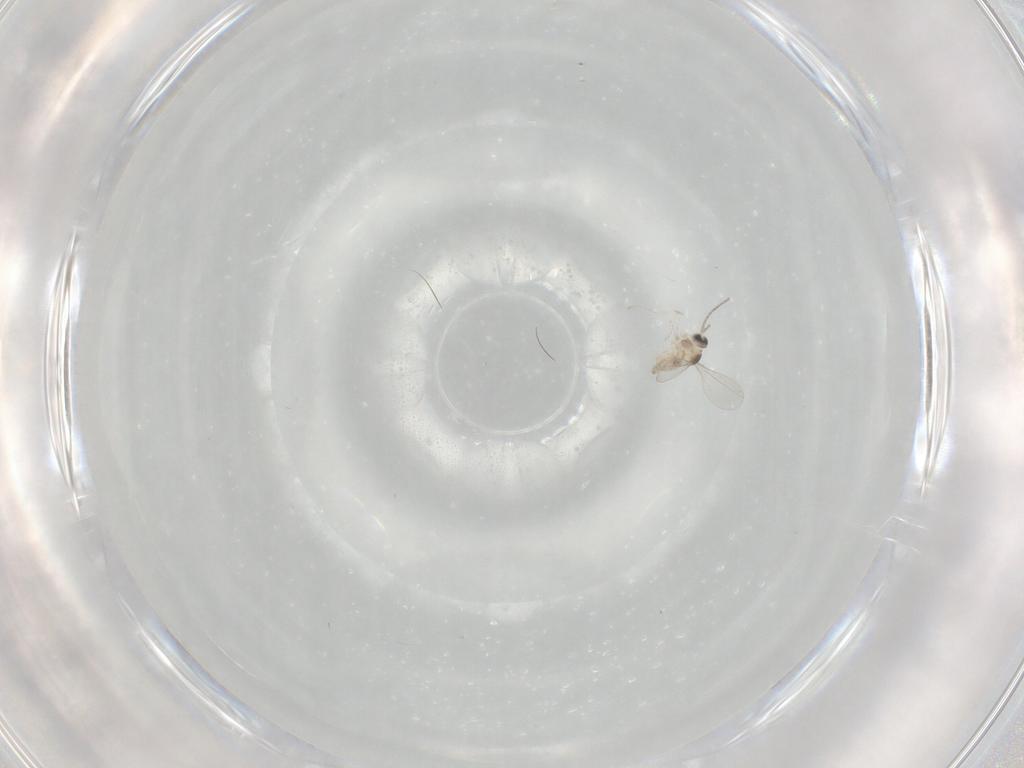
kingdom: Animalia
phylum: Arthropoda
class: Insecta
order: Diptera
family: Cecidomyiidae
